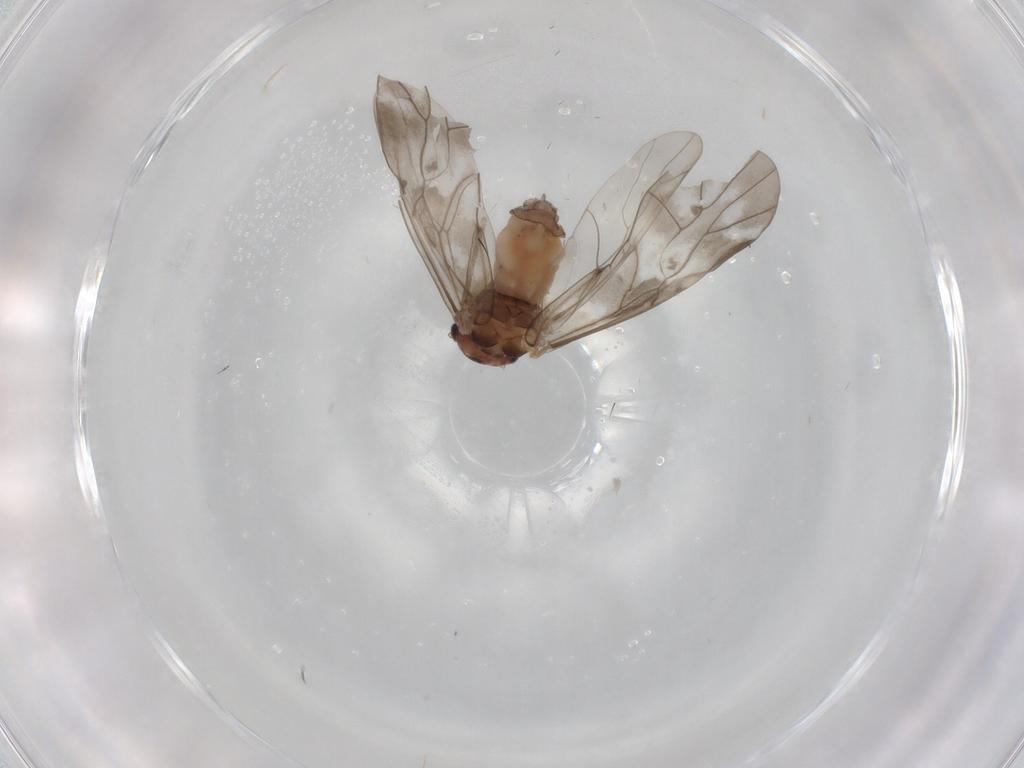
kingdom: Animalia
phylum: Arthropoda
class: Insecta
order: Psocodea
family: Peripsocidae
